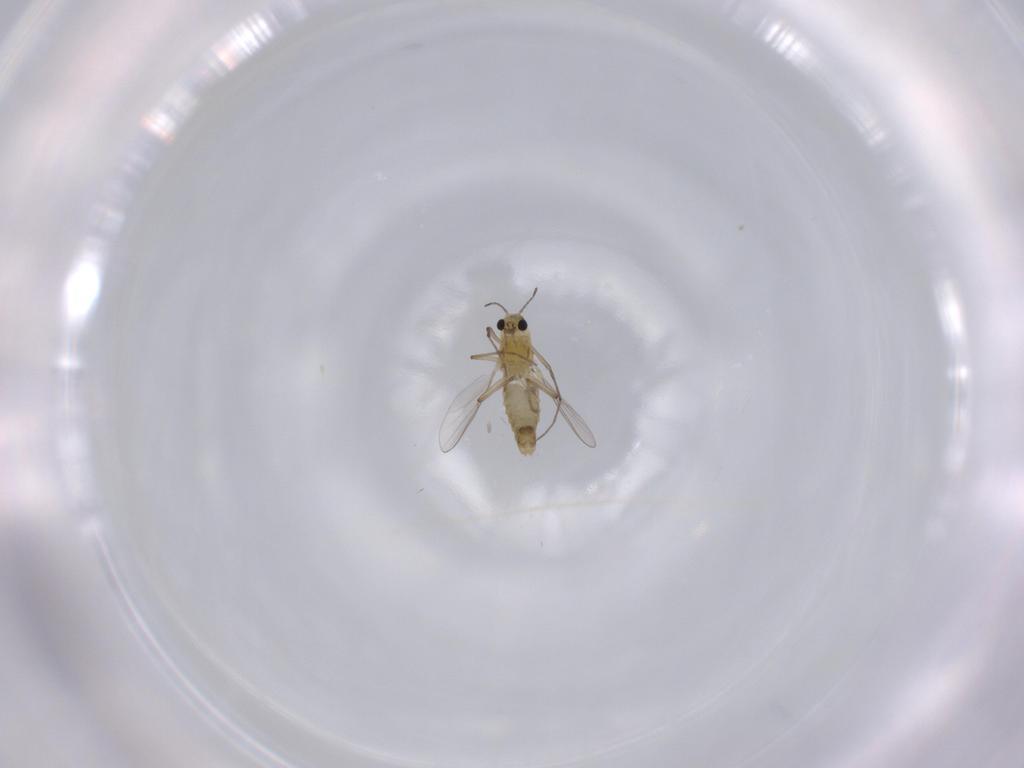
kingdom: Animalia
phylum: Arthropoda
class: Insecta
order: Diptera
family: Chironomidae
